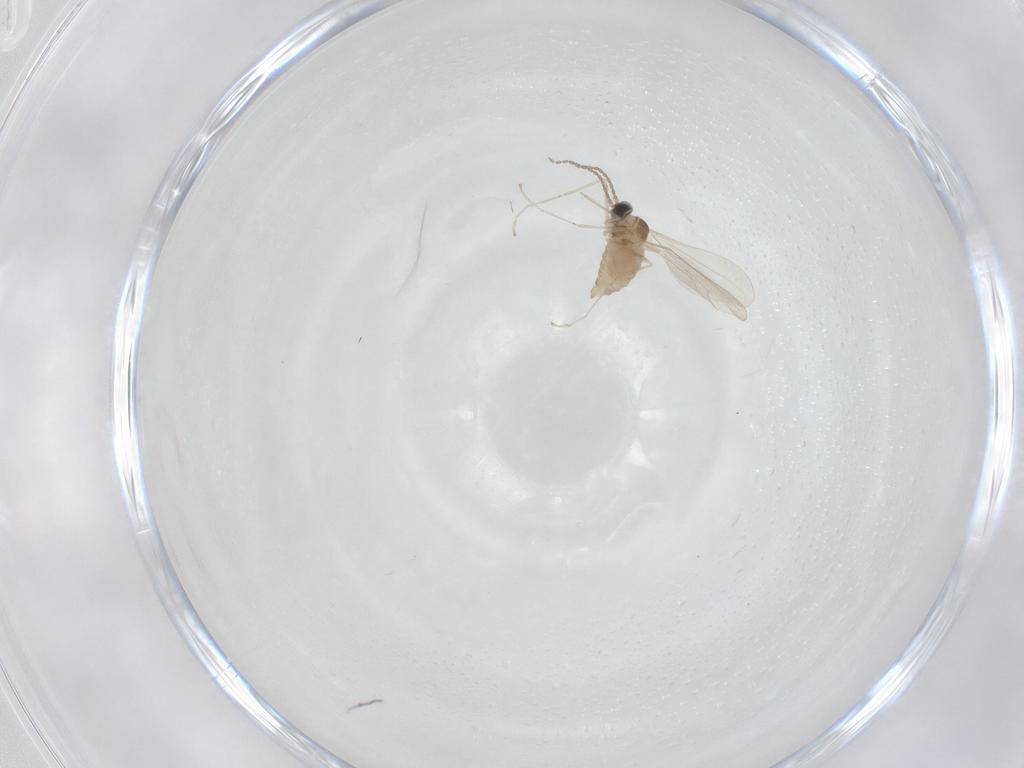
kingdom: Animalia
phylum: Arthropoda
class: Insecta
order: Diptera
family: Cecidomyiidae
